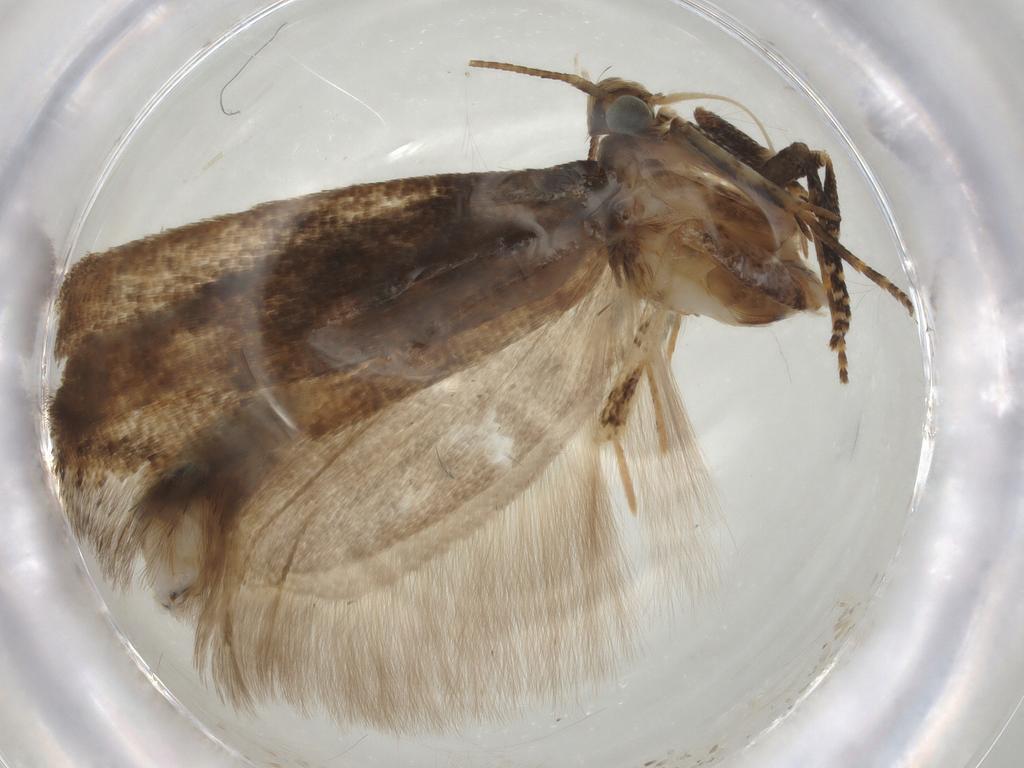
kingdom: Animalia
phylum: Arthropoda
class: Insecta
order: Lepidoptera
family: Gelechiidae
